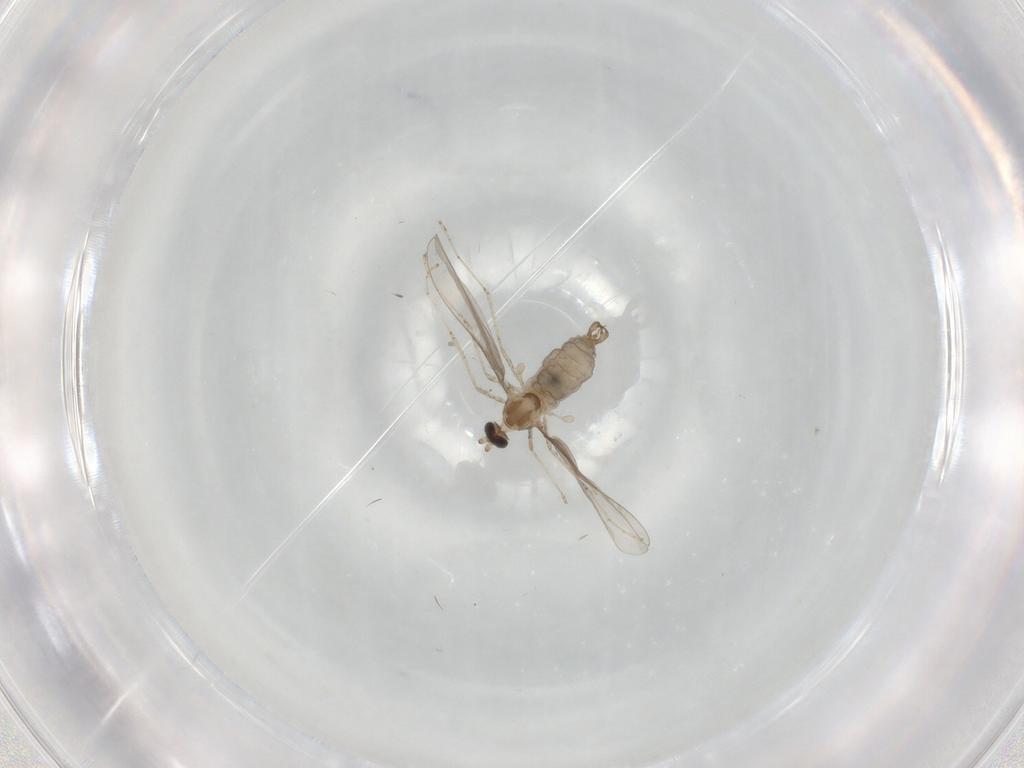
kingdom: Animalia
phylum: Arthropoda
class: Insecta
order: Diptera
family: Cecidomyiidae
